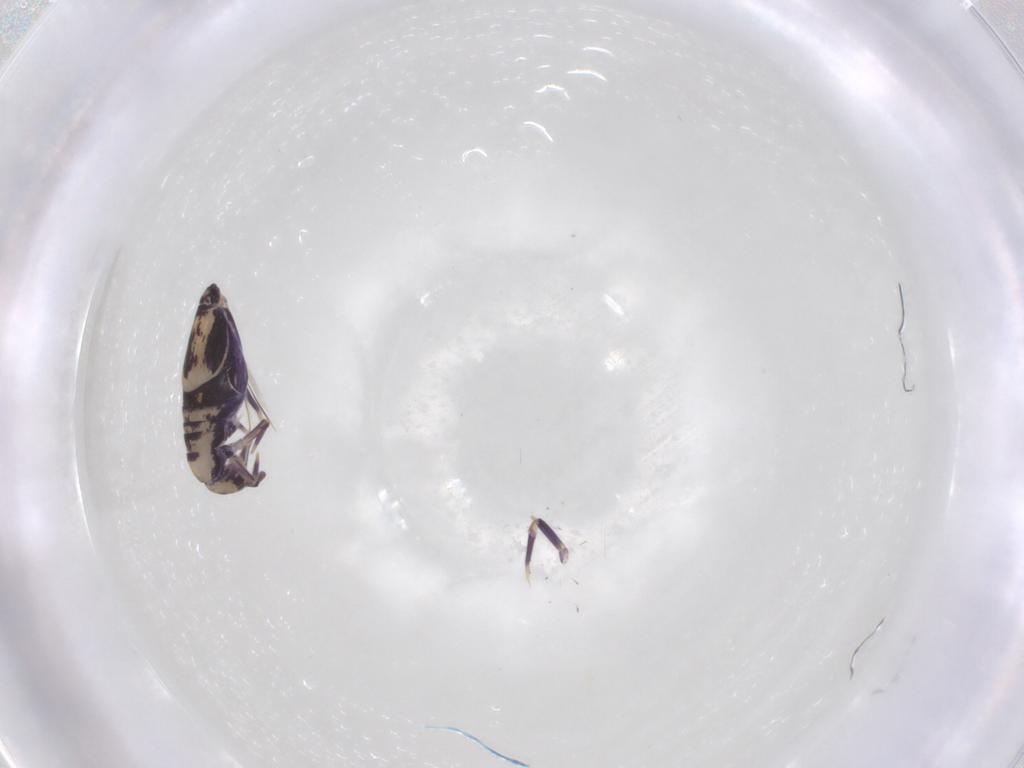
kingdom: Animalia
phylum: Arthropoda
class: Collembola
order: Entomobryomorpha
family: Entomobryidae
